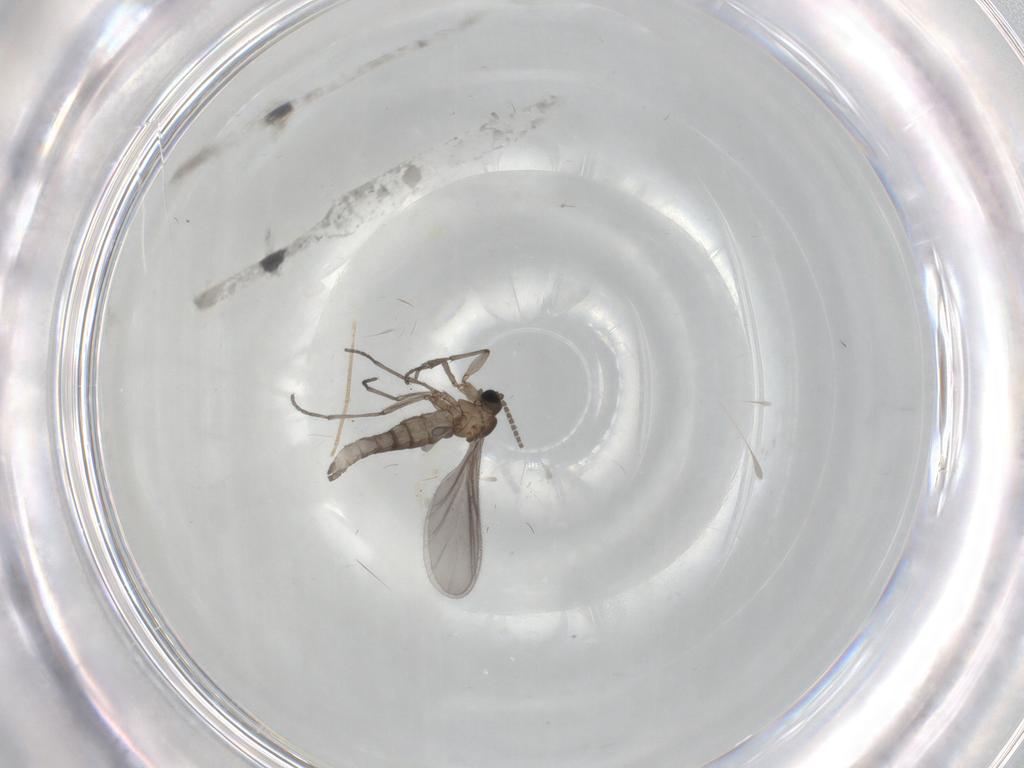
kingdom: Animalia
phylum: Arthropoda
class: Insecta
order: Diptera
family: Sciaridae
